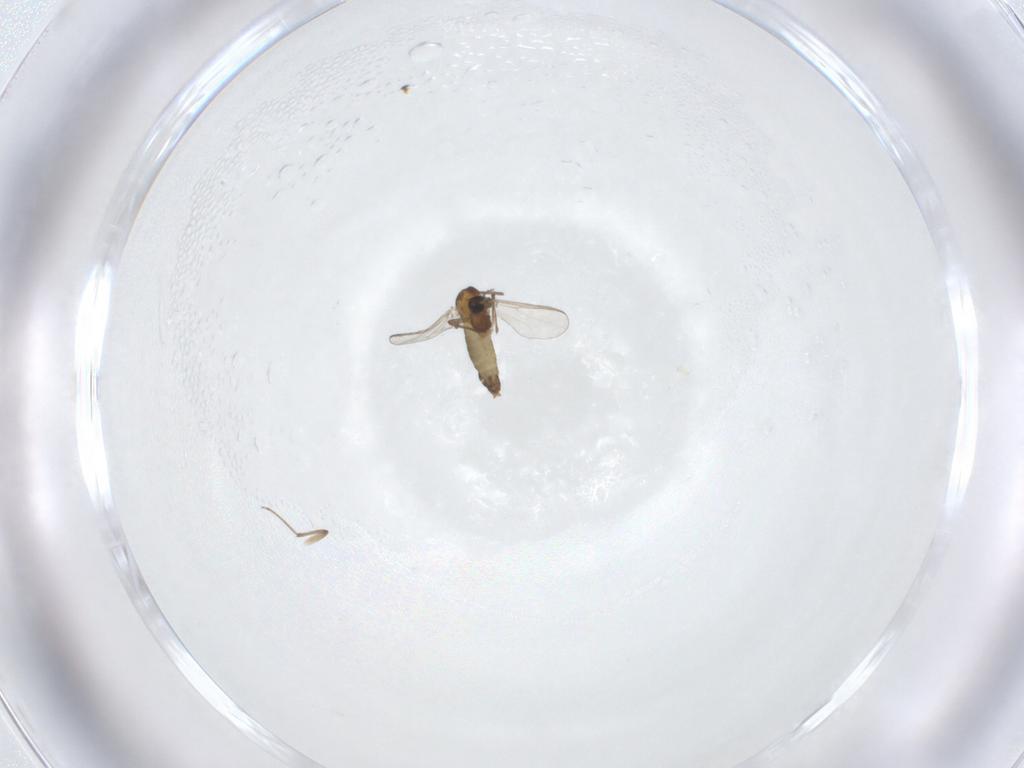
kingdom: Animalia
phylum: Arthropoda
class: Insecta
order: Diptera
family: Chironomidae
